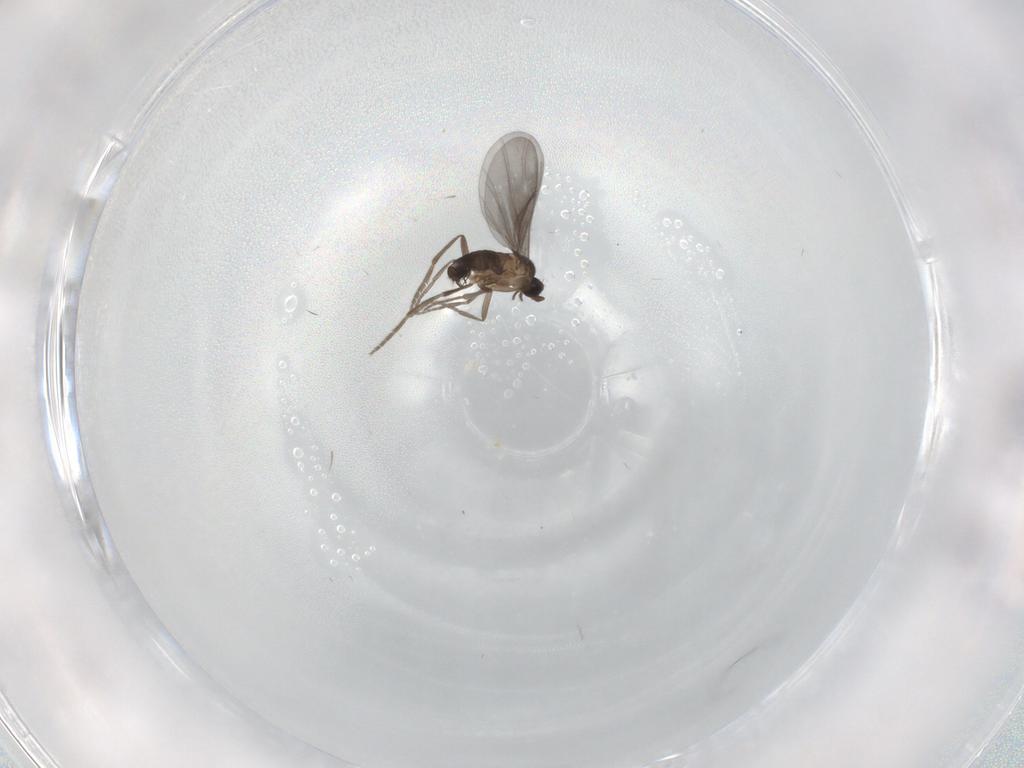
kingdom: Animalia
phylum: Arthropoda
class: Insecta
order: Diptera
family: Phoridae
